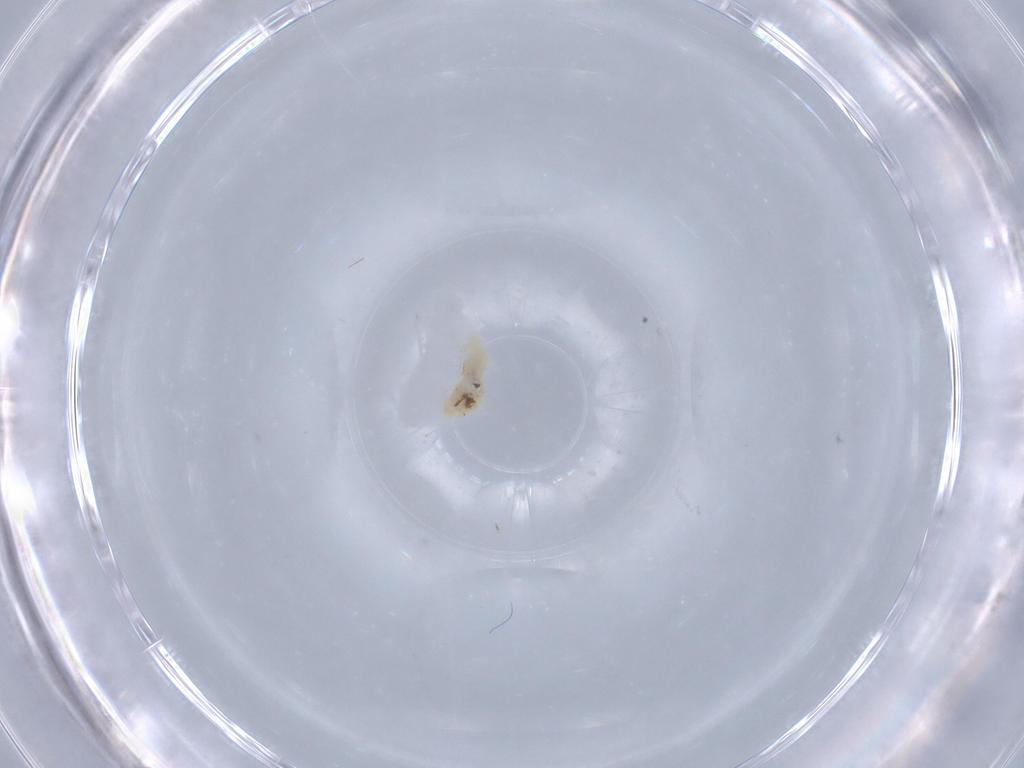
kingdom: Animalia
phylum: Arthropoda
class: Insecta
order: Diptera
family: Cecidomyiidae
